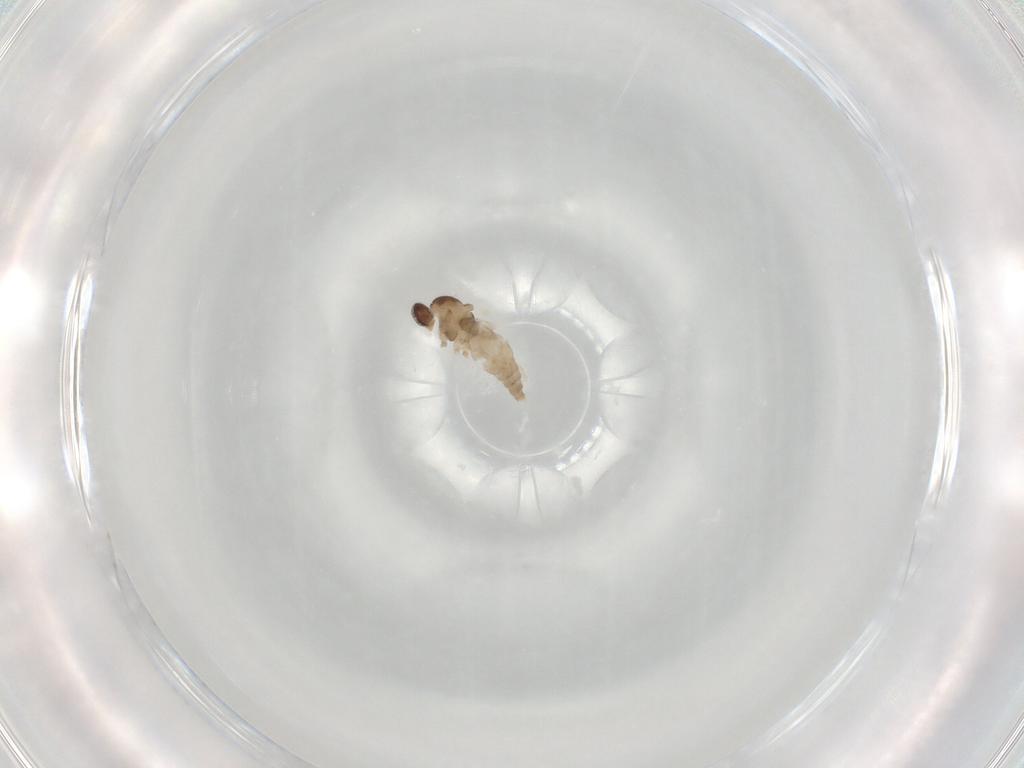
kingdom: Animalia
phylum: Arthropoda
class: Insecta
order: Diptera
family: Cecidomyiidae
